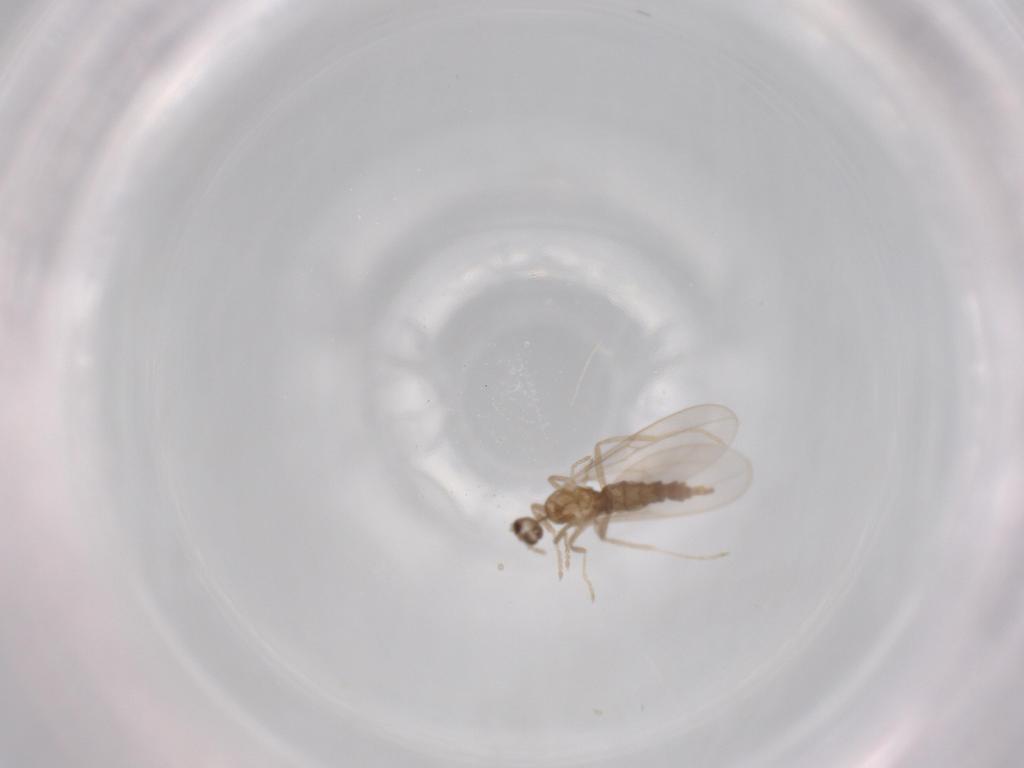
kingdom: Animalia
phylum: Arthropoda
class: Insecta
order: Diptera
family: Cecidomyiidae
